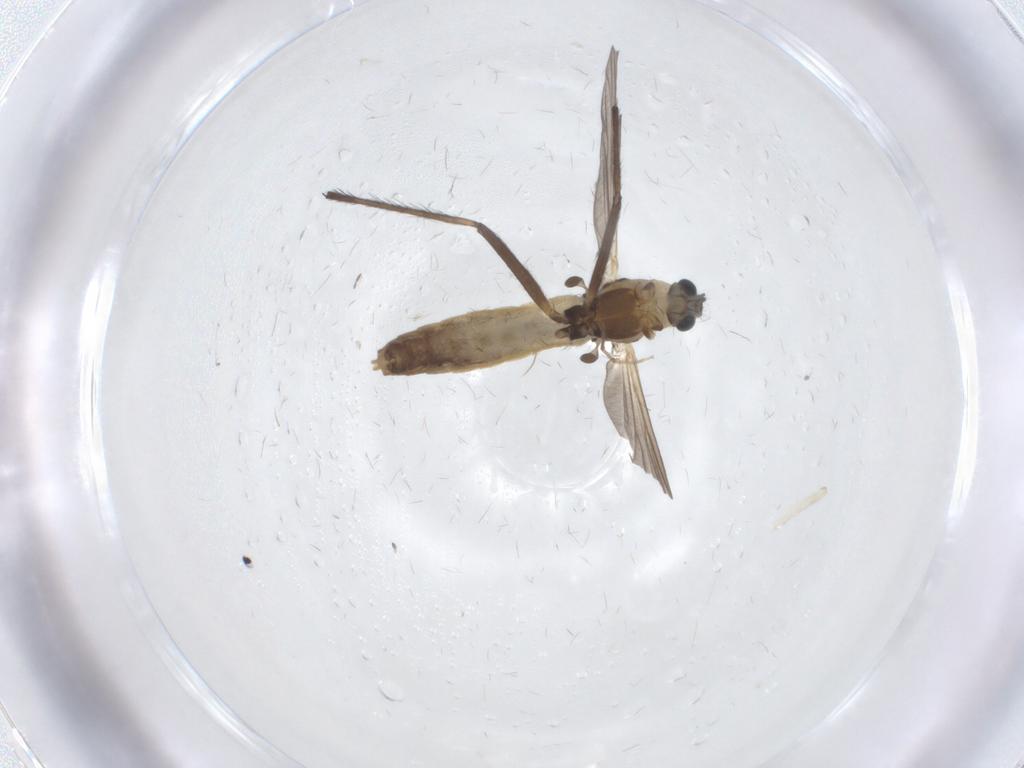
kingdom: Animalia
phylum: Arthropoda
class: Insecta
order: Diptera
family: Chironomidae
